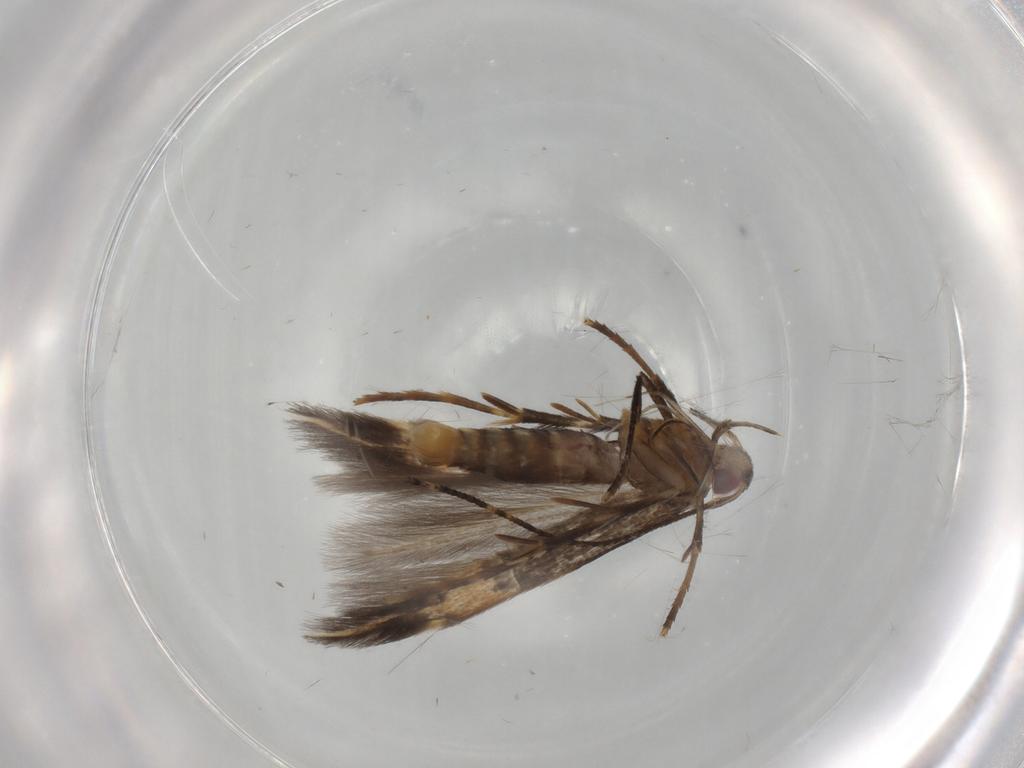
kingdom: Animalia
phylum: Arthropoda
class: Insecta
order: Lepidoptera
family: Cosmopterigidae
